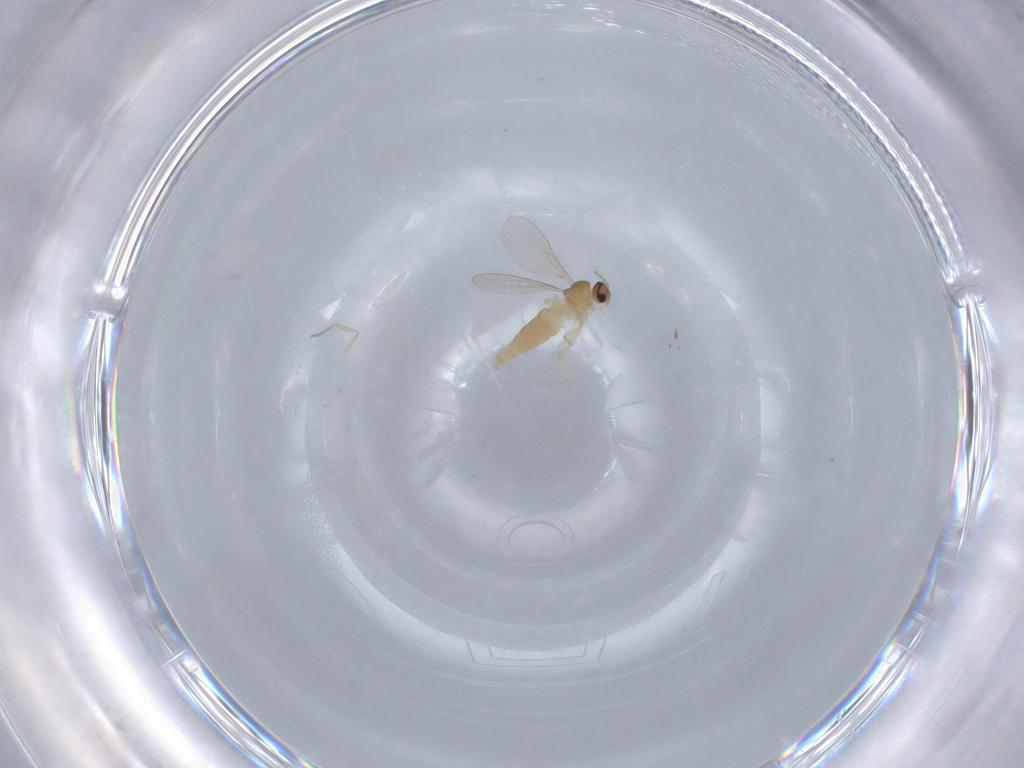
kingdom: Animalia
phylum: Arthropoda
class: Insecta
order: Diptera
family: Cecidomyiidae
